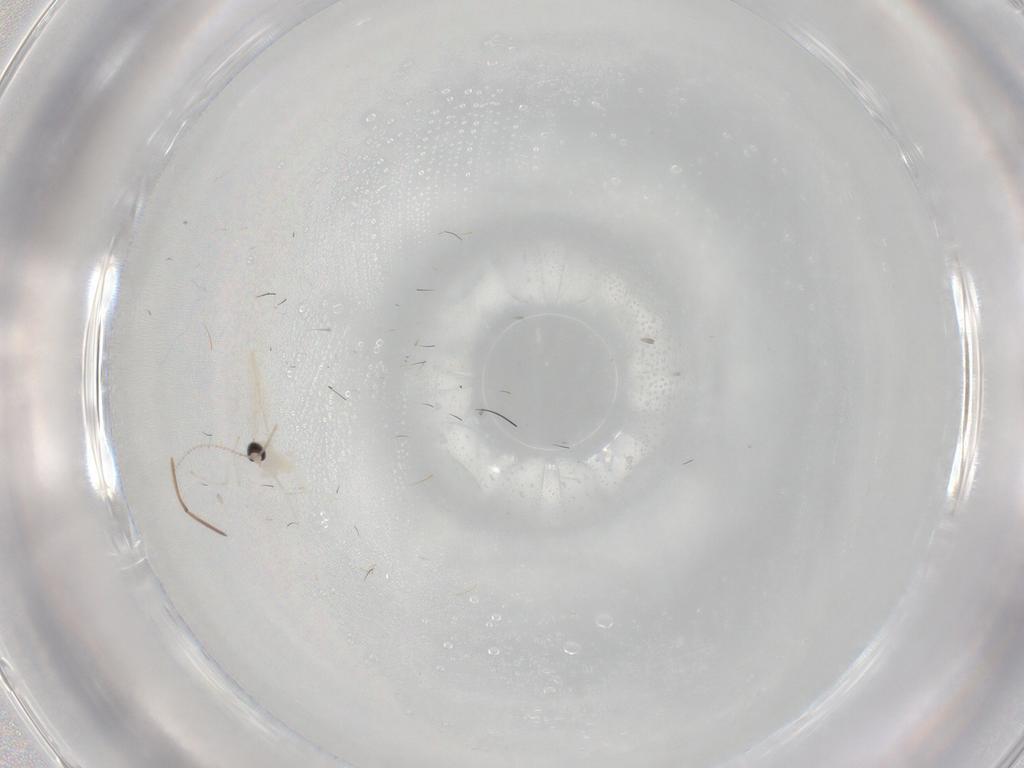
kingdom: Animalia
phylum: Arthropoda
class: Insecta
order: Diptera
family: Cecidomyiidae
